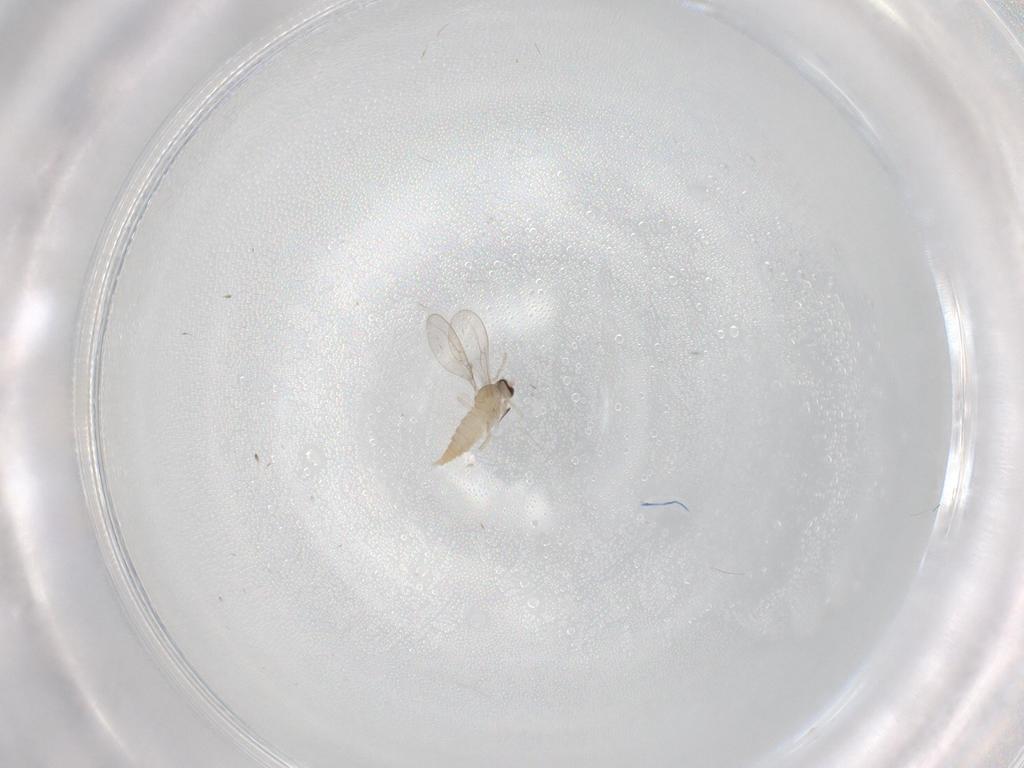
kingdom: Animalia
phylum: Arthropoda
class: Insecta
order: Diptera
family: Cecidomyiidae
